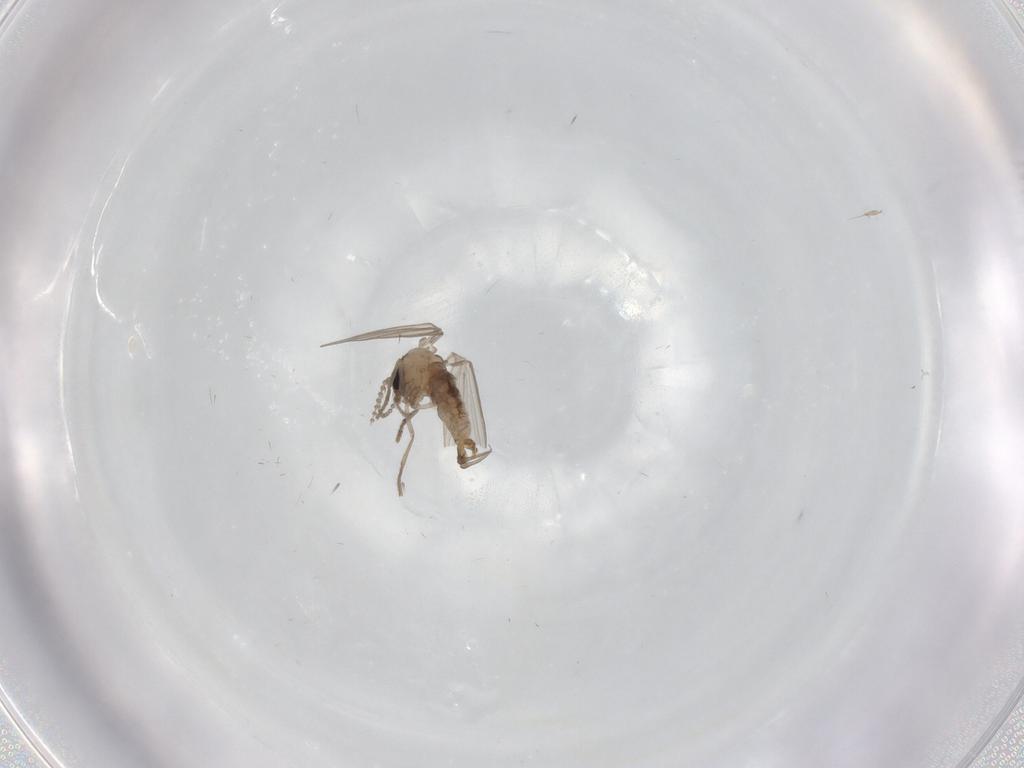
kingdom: Animalia
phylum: Arthropoda
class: Insecta
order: Diptera
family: Psychodidae
